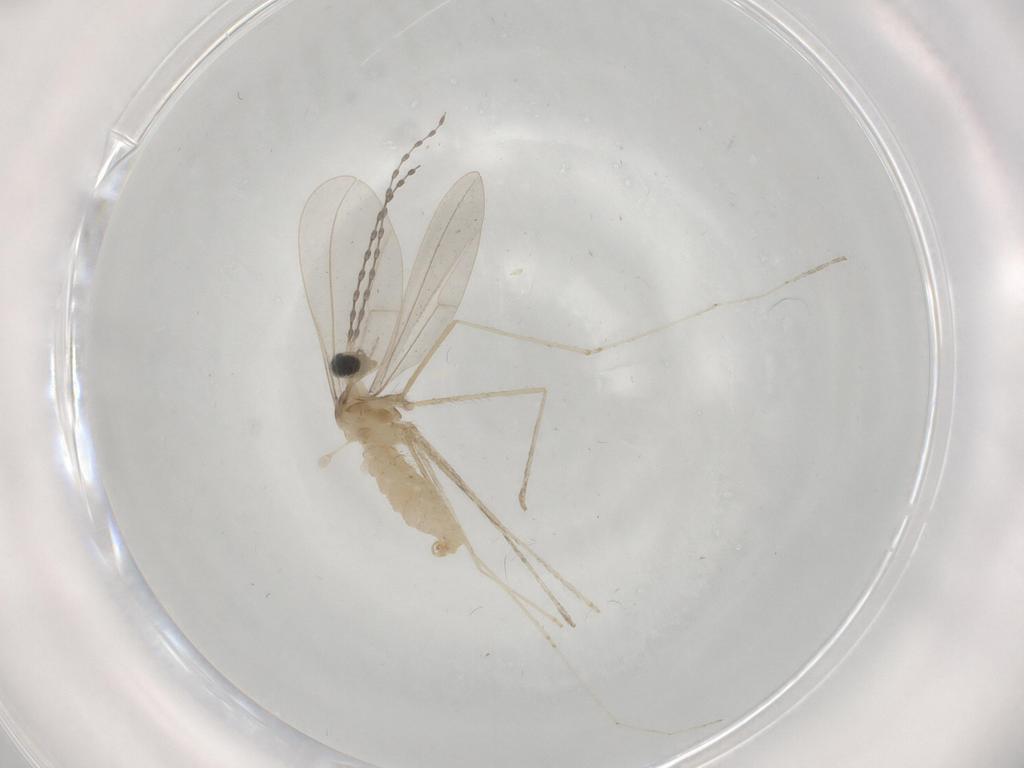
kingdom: Animalia
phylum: Arthropoda
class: Insecta
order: Diptera
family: Cecidomyiidae
